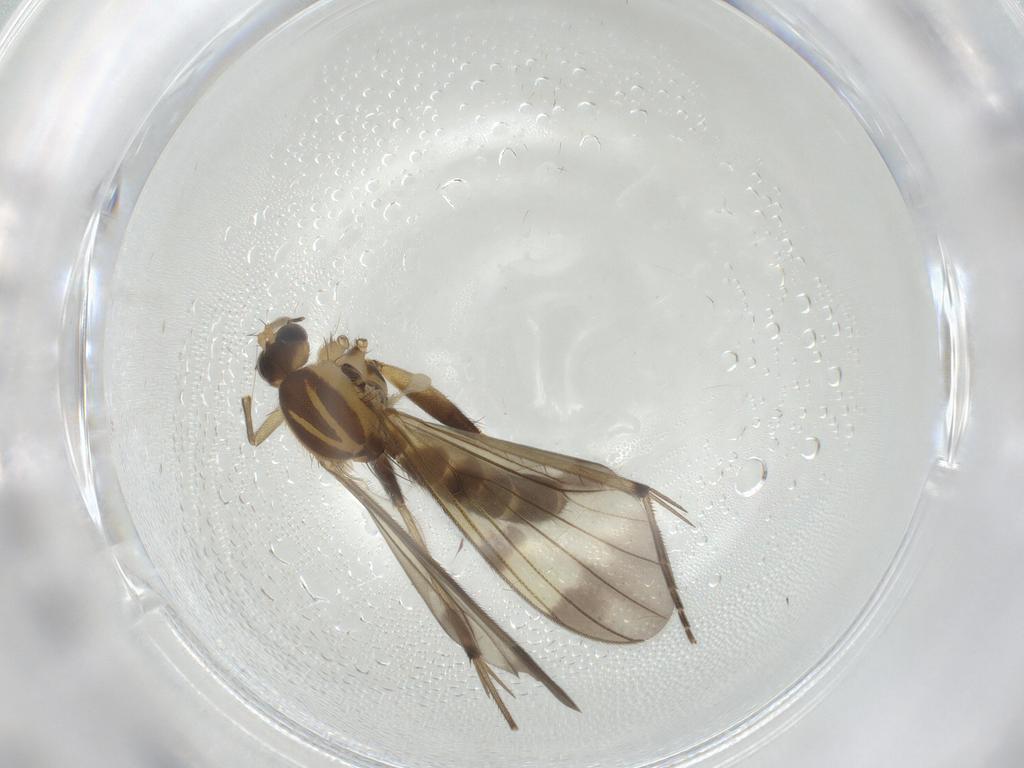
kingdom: Animalia
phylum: Arthropoda
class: Insecta
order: Diptera
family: Mycetophilidae
